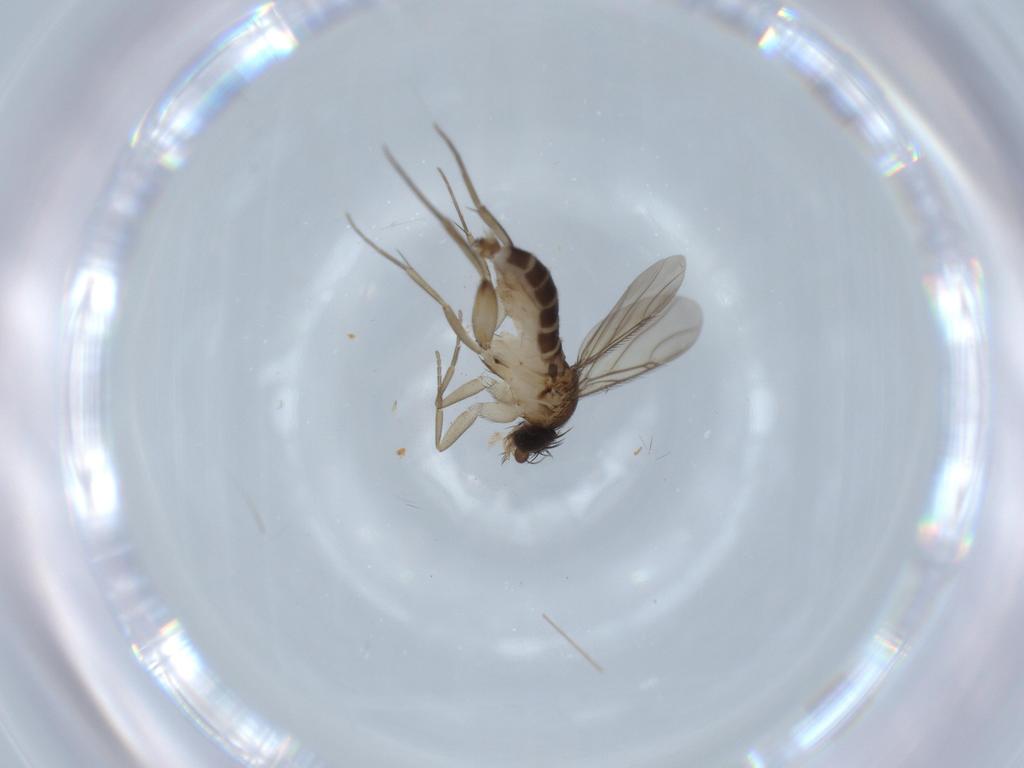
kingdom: Animalia
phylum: Arthropoda
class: Insecta
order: Diptera
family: Phoridae
